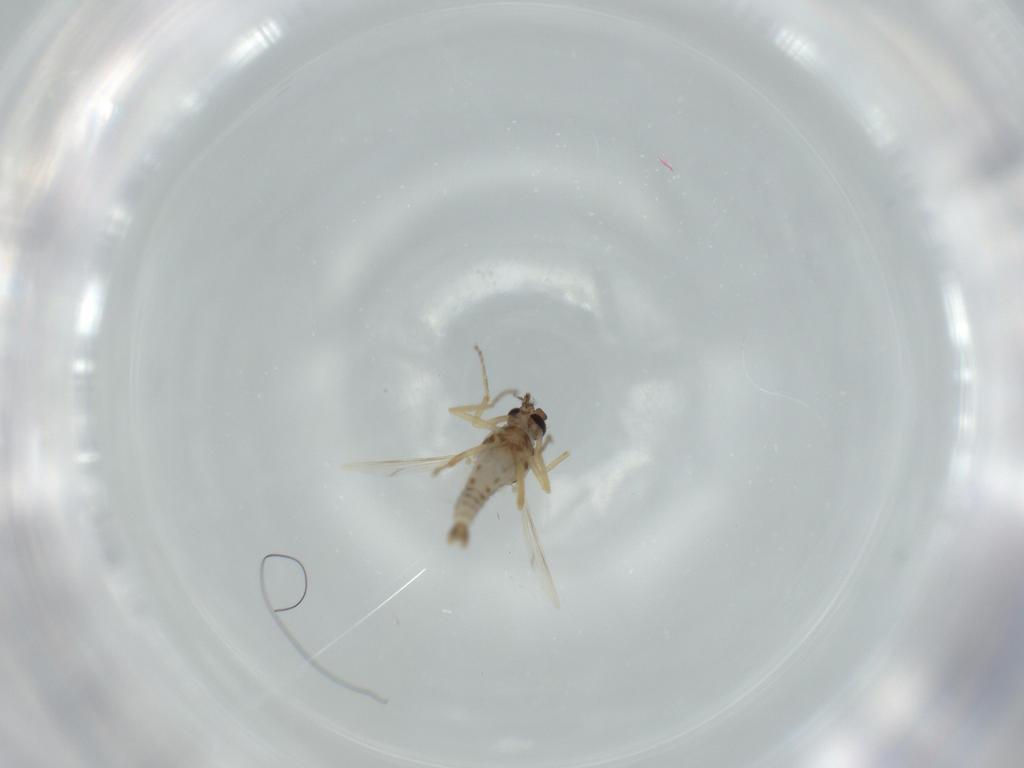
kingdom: Animalia
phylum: Arthropoda
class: Insecta
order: Diptera
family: Ceratopogonidae
